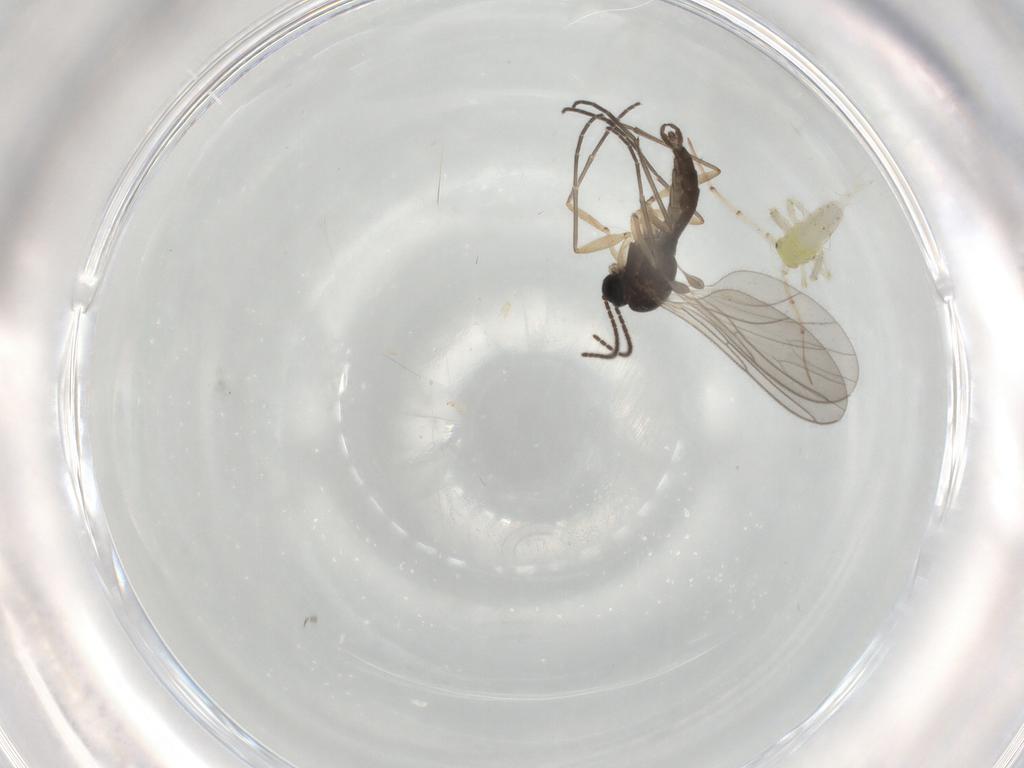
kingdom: Animalia
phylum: Arthropoda
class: Insecta
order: Diptera
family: Sciaridae
